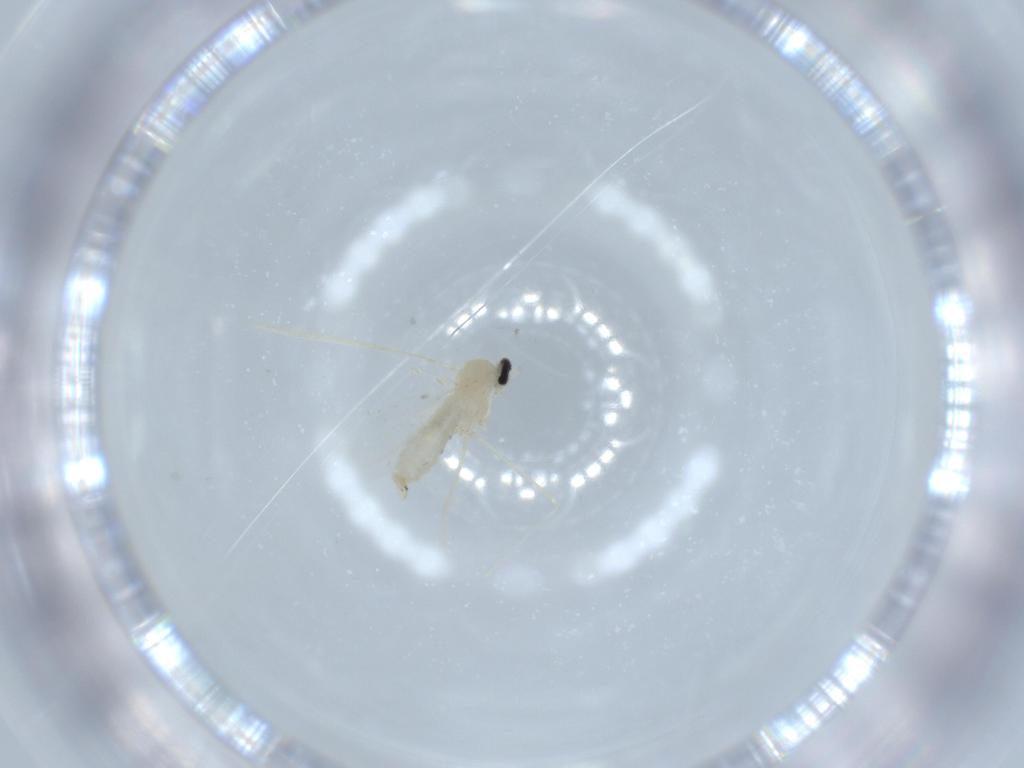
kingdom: Animalia
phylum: Arthropoda
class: Insecta
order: Diptera
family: Cecidomyiidae
